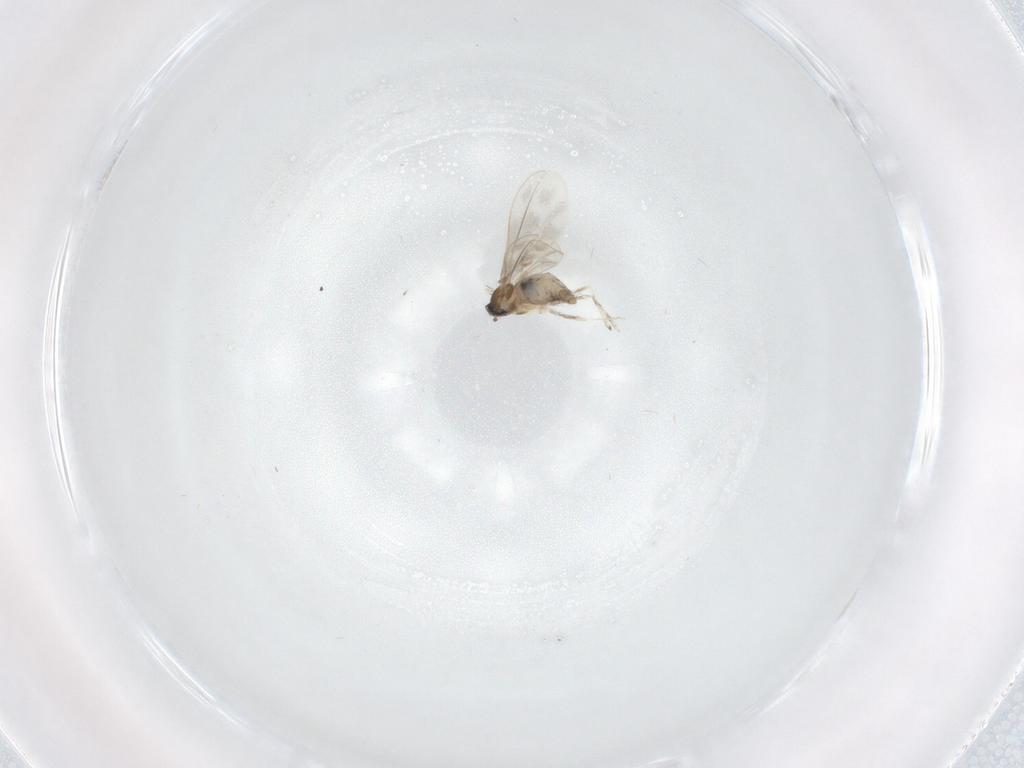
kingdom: Animalia
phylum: Arthropoda
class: Insecta
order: Diptera
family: Cecidomyiidae
